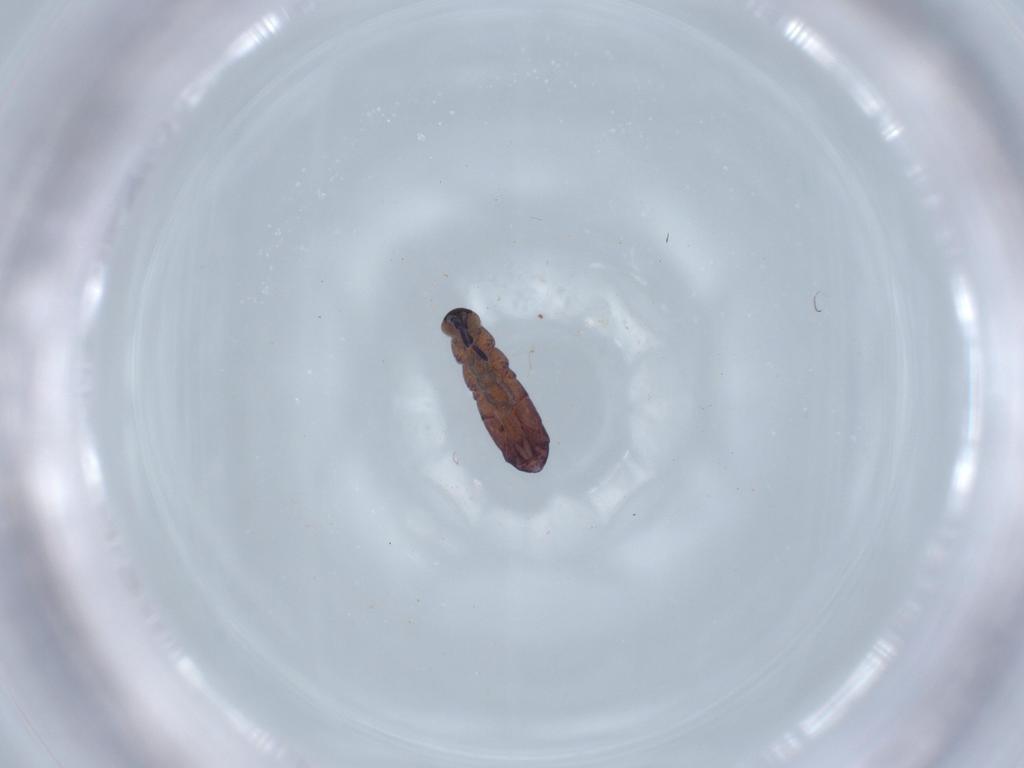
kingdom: Animalia
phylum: Arthropoda
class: Collembola
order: Entomobryomorpha
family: Isotomidae
